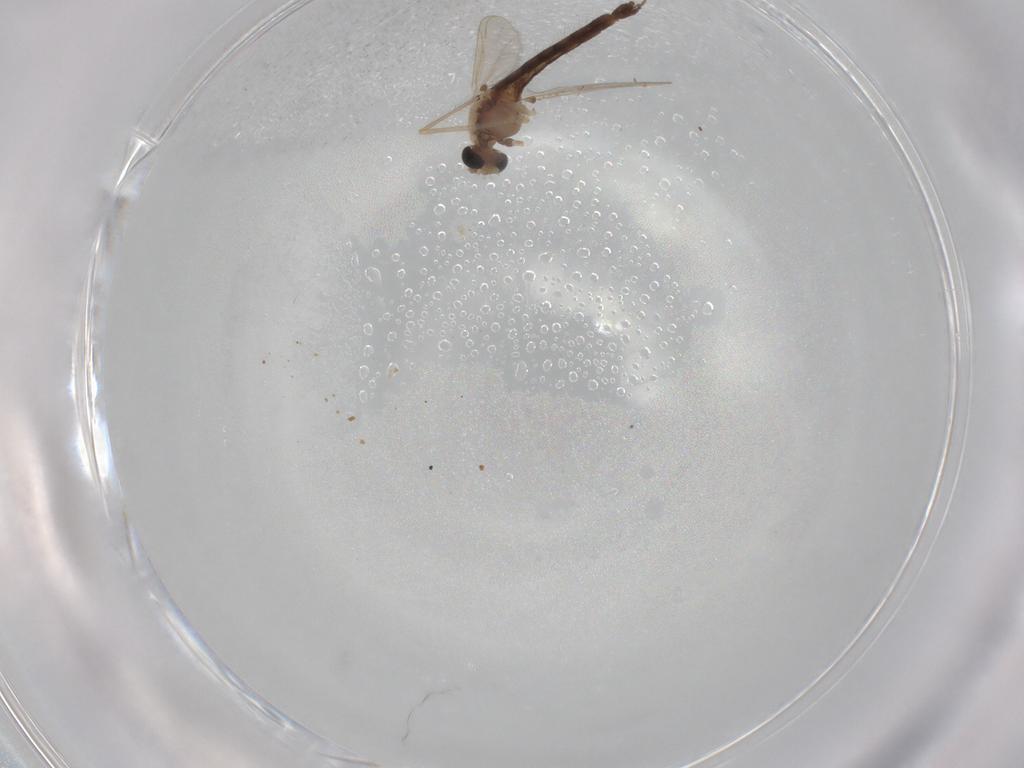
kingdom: Animalia
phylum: Arthropoda
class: Insecta
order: Diptera
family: Chironomidae
